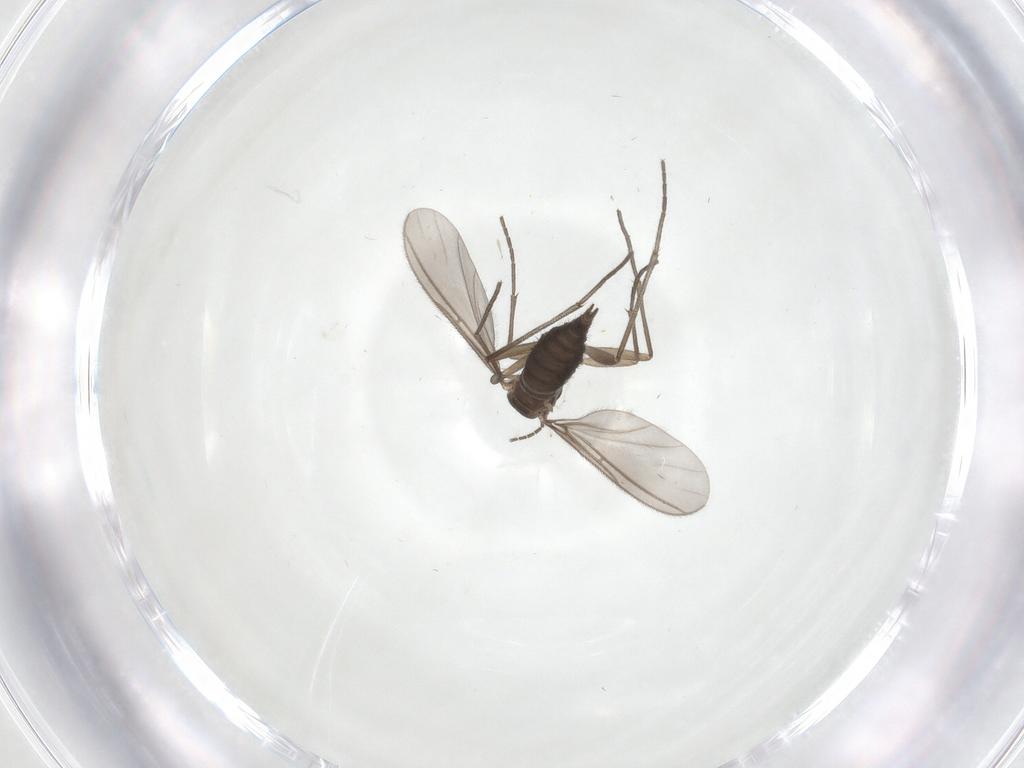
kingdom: Animalia
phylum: Arthropoda
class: Insecta
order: Diptera
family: Sciaridae
